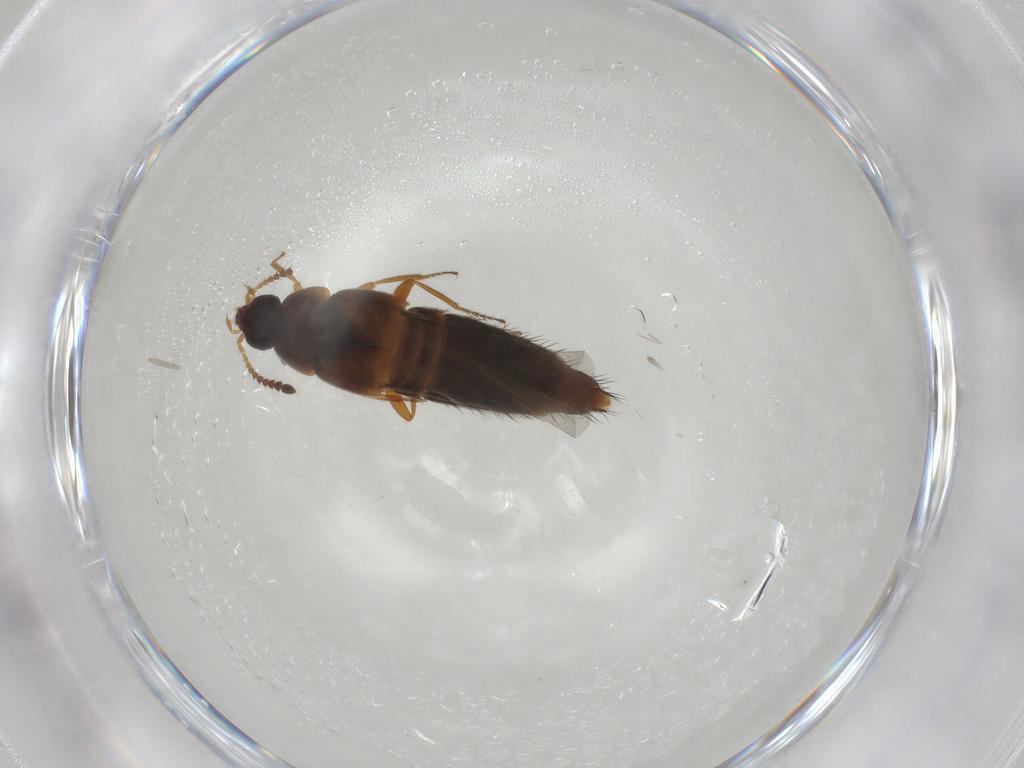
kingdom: Animalia
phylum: Arthropoda
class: Insecta
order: Coleoptera
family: Staphylinidae
